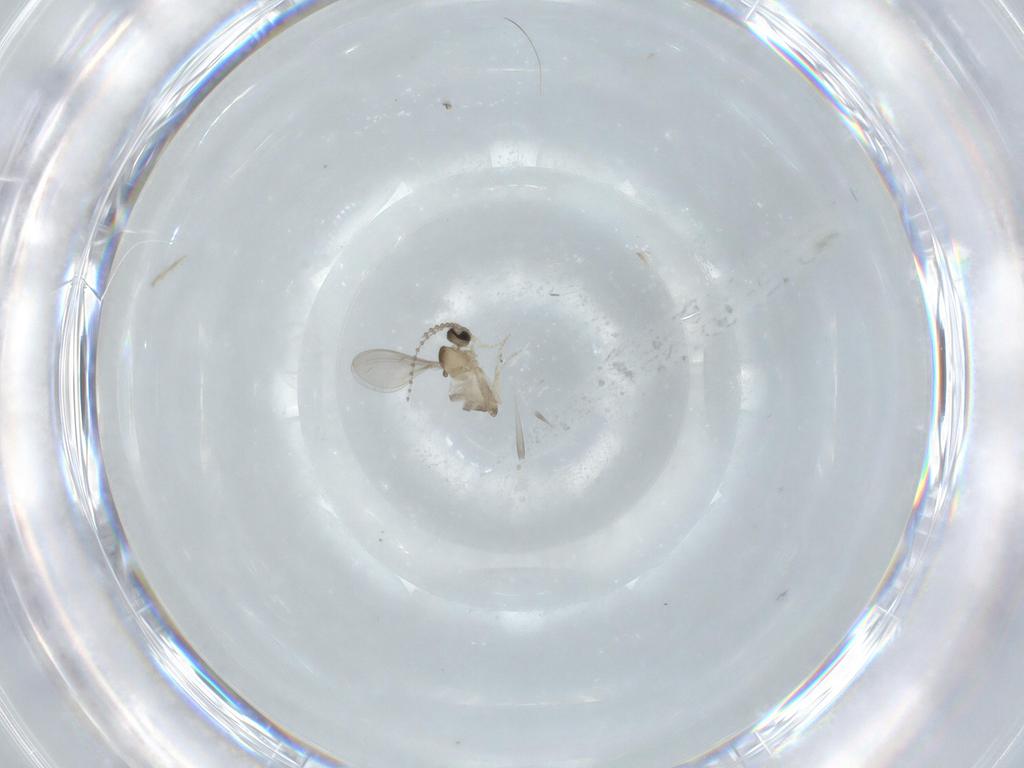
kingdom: Animalia
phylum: Arthropoda
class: Insecta
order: Diptera
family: Cecidomyiidae
